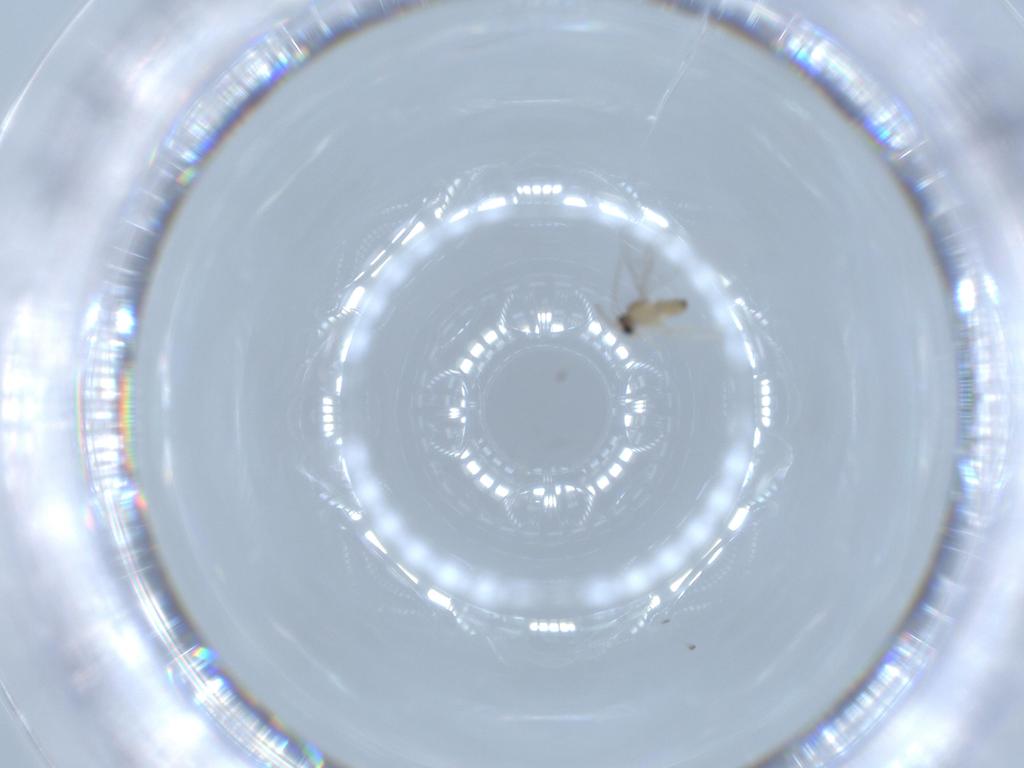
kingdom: Animalia
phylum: Arthropoda
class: Insecta
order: Diptera
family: Cecidomyiidae
